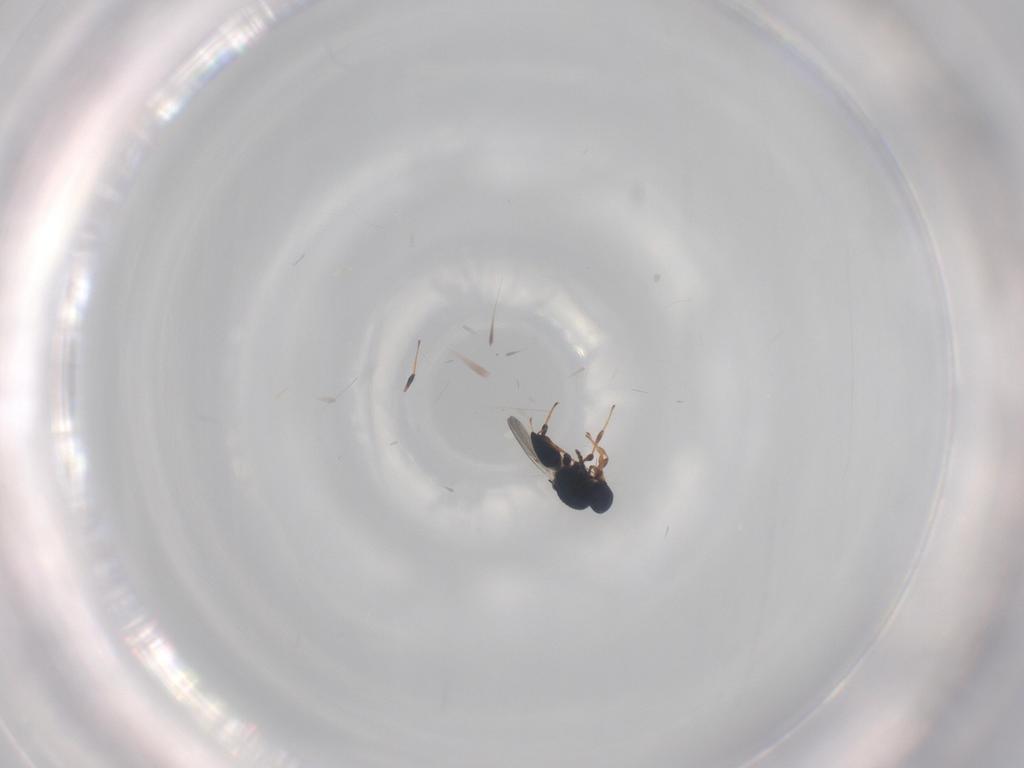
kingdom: Animalia
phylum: Arthropoda
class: Insecta
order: Hymenoptera
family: Platygastridae
